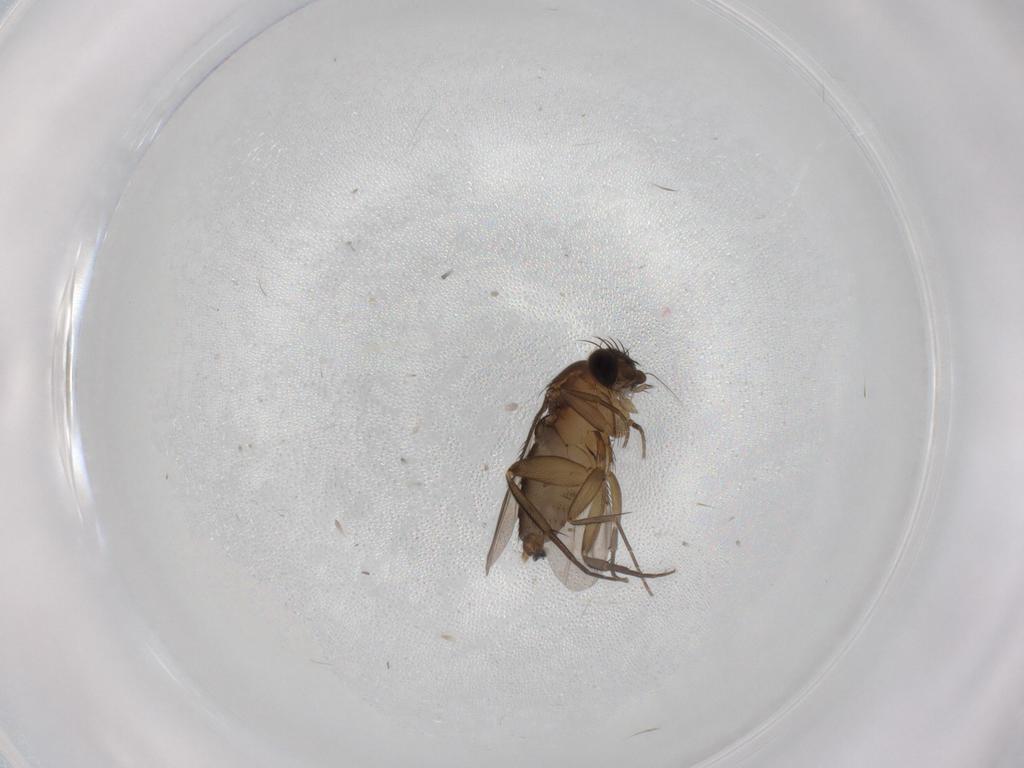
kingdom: Animalia
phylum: Arthropoda
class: Insecta
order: Diptera
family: Phoridae
